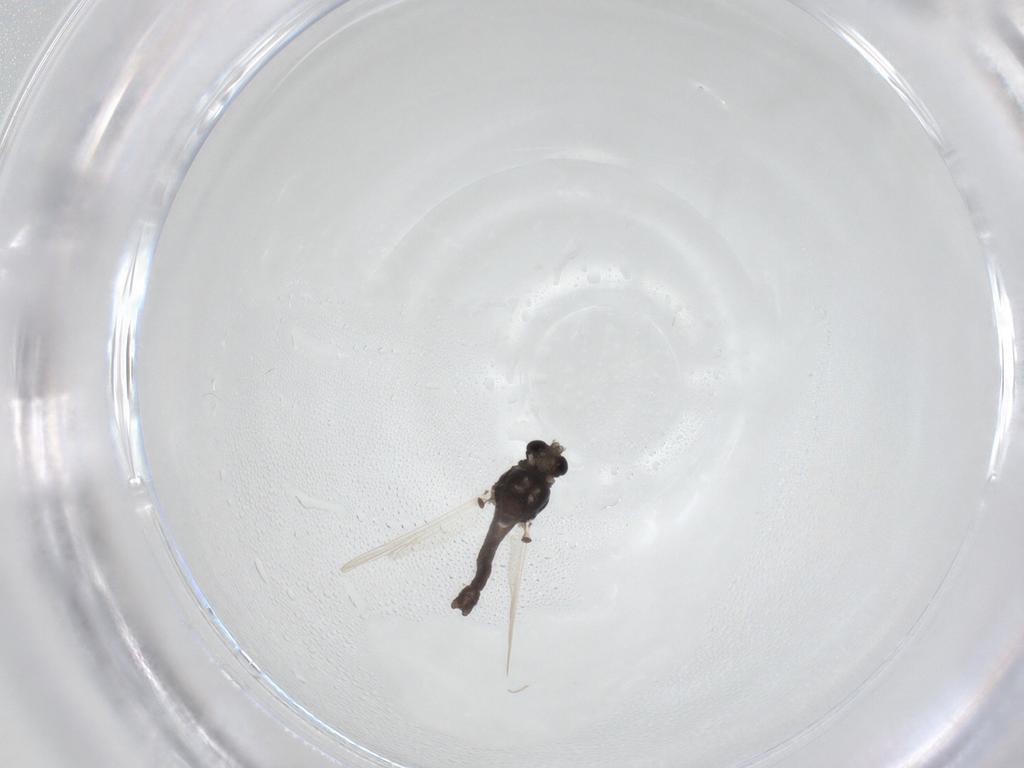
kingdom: Animalia
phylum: Arthropoda
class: Insecta
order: Diptera
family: Chironomidae
